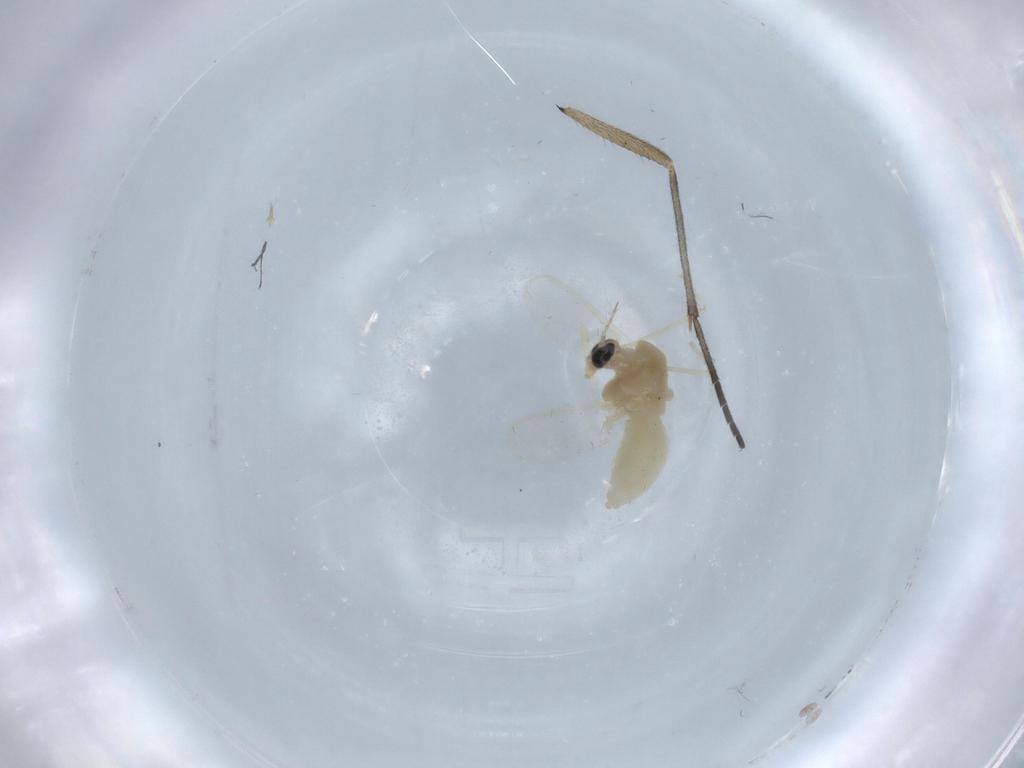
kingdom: Animalia
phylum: Arthropoda
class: Insecta
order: Diptera
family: Chironomidae
